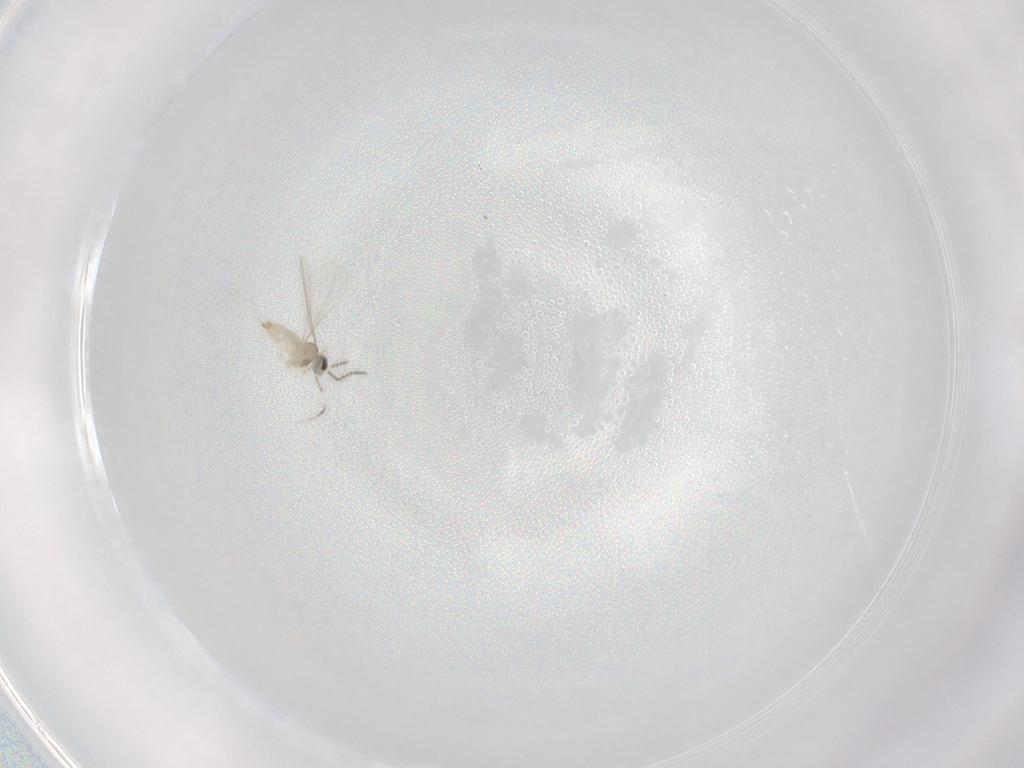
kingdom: Animalia
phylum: Arthropoda
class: Insecta
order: Diptera
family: Cecidomyiidae
